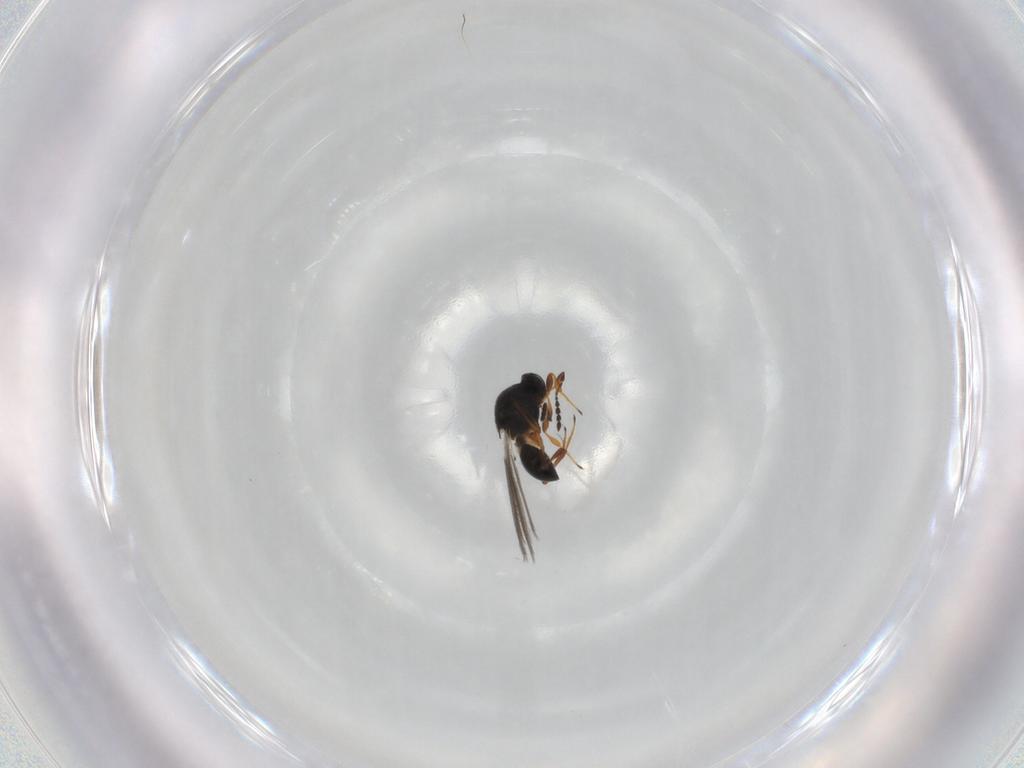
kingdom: Animalia
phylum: Arthropoda
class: Insecta
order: Hymenoptera
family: Platygastridae
